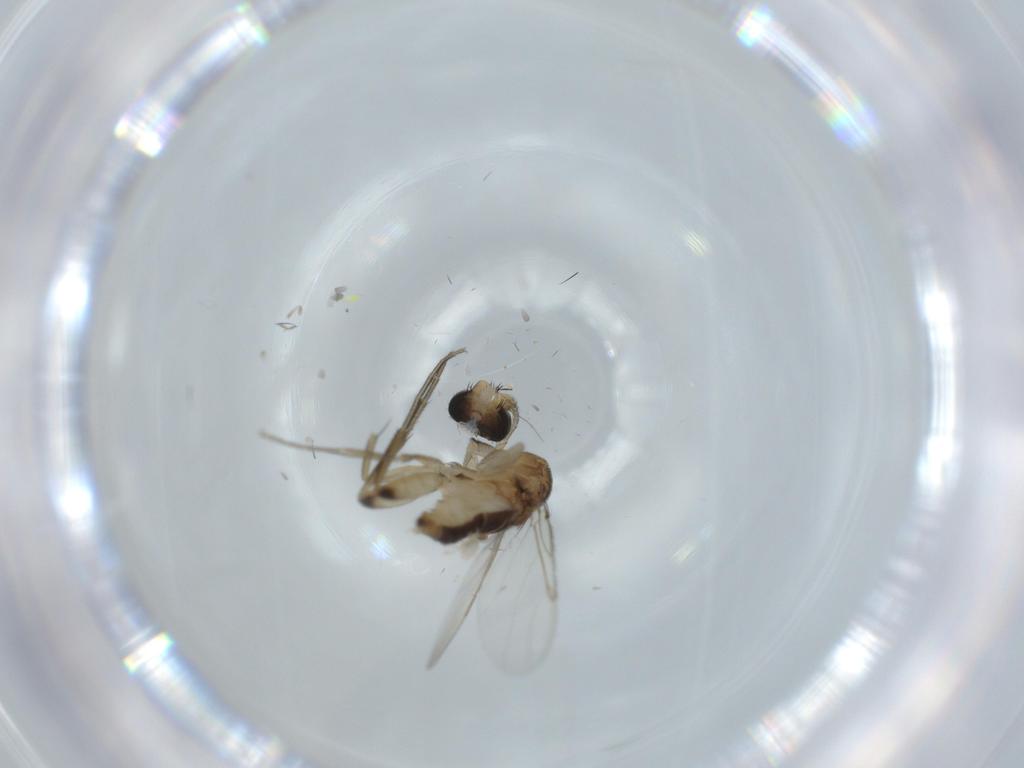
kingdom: Animalia
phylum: Arthropoda
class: Insecta
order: Diptera
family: Phoridae
